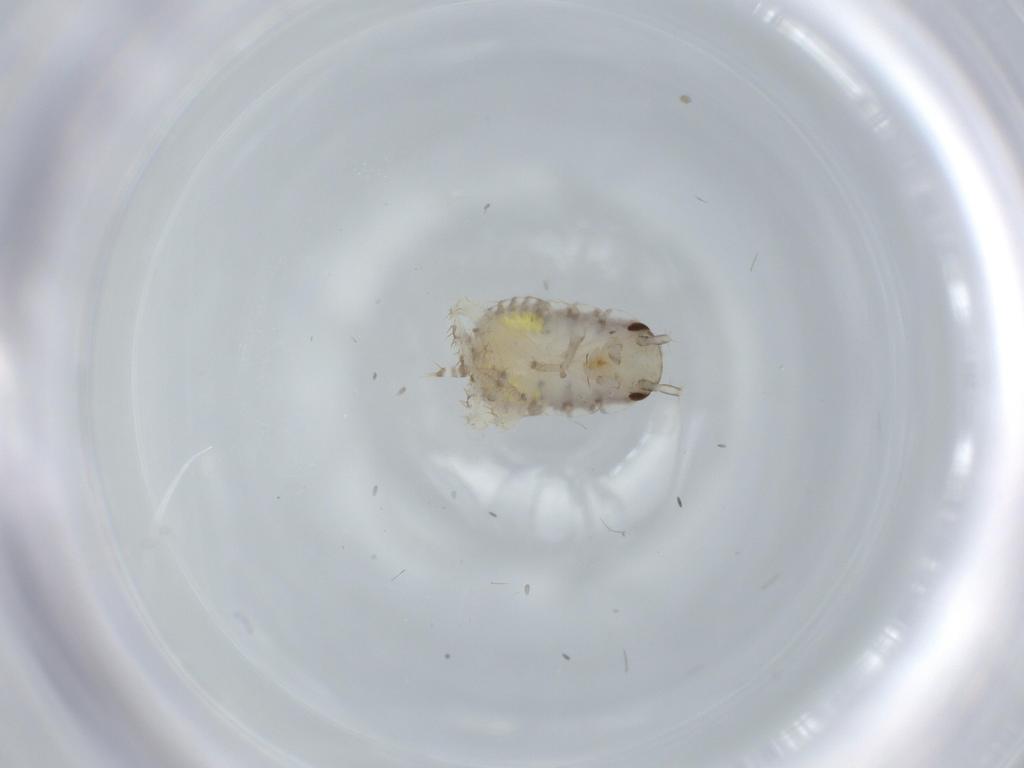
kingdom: Animalia
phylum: Arthropoda
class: Insecta
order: Blattodea
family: Ectobiidae
